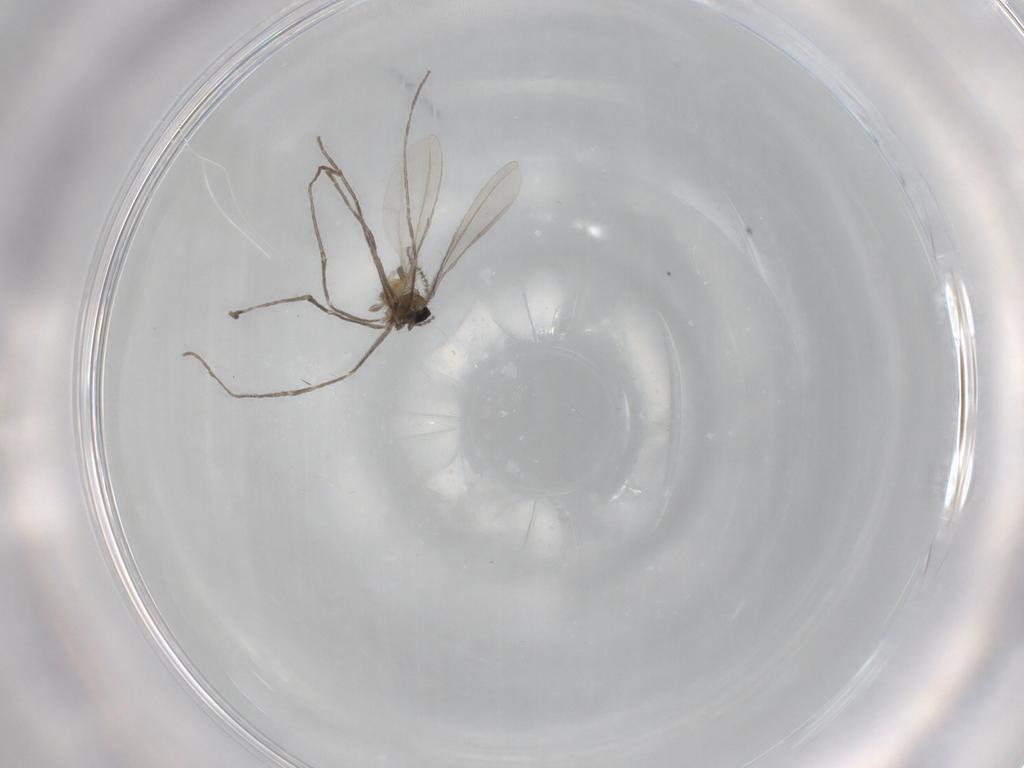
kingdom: Animalia
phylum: Arthropoda
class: Insecta
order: Diptera
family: Cecidomyiidae
